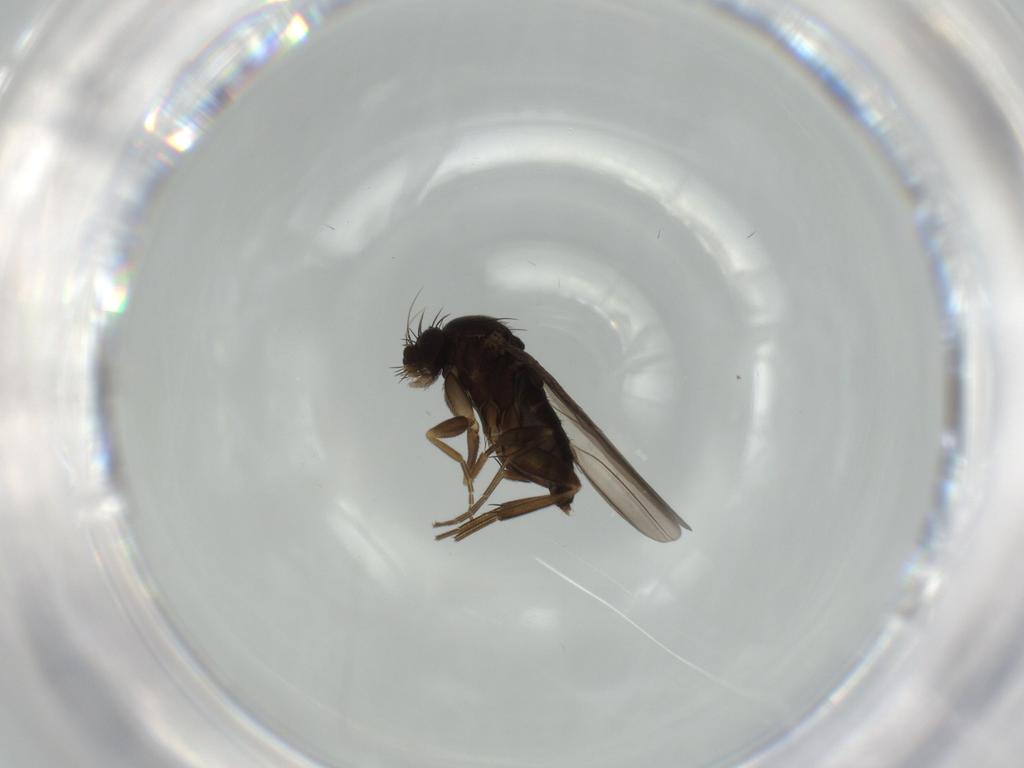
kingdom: Animalia
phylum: Arthropoda
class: Insecta
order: Diptera
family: Phoridae
